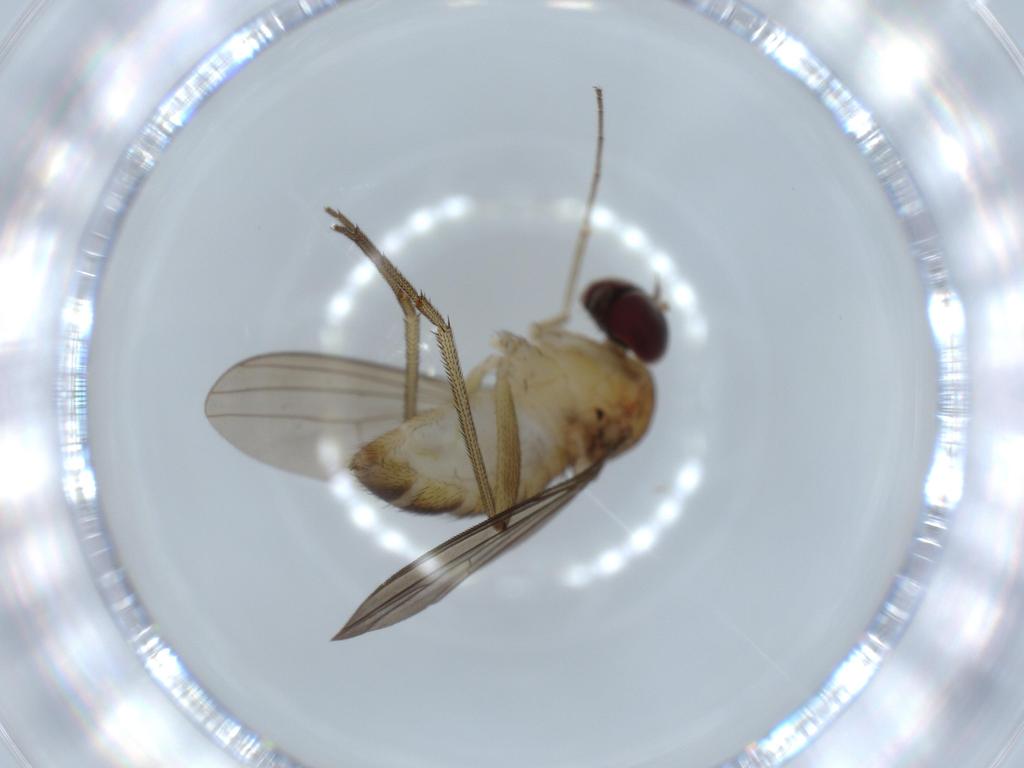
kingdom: Animalia
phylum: Arthropoda
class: Insecta
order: Diptera
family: Dolichopodidae
